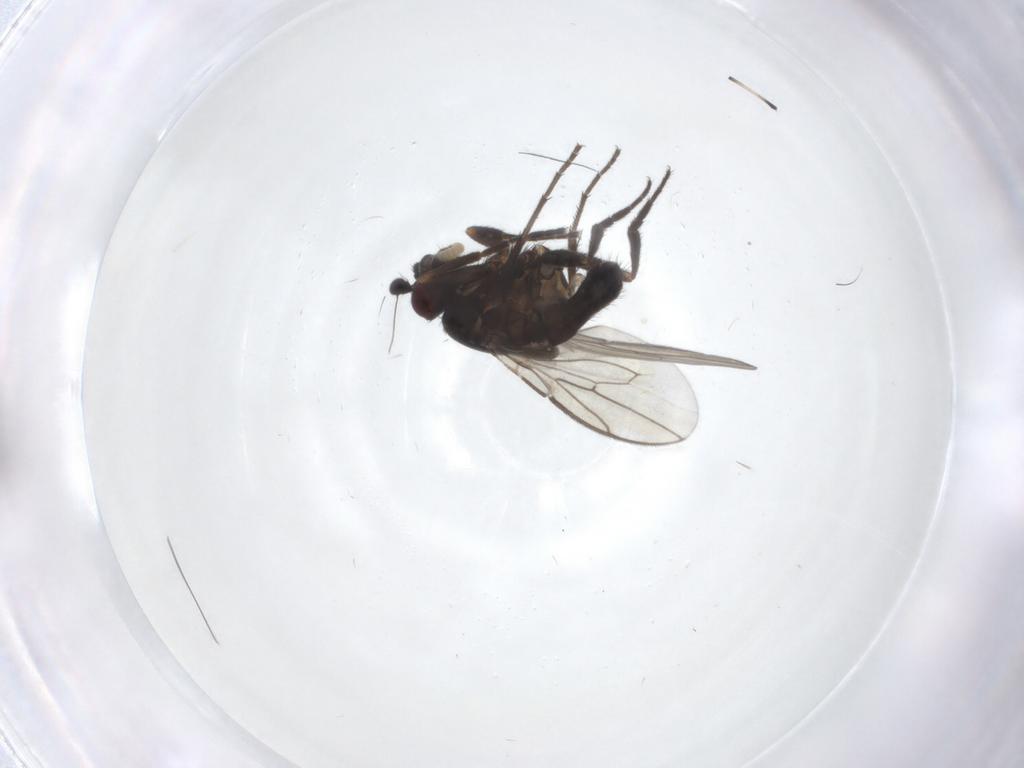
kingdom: Animalia
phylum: Arthropoda
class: Insecta
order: Diptera
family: Sphaeroceridae
